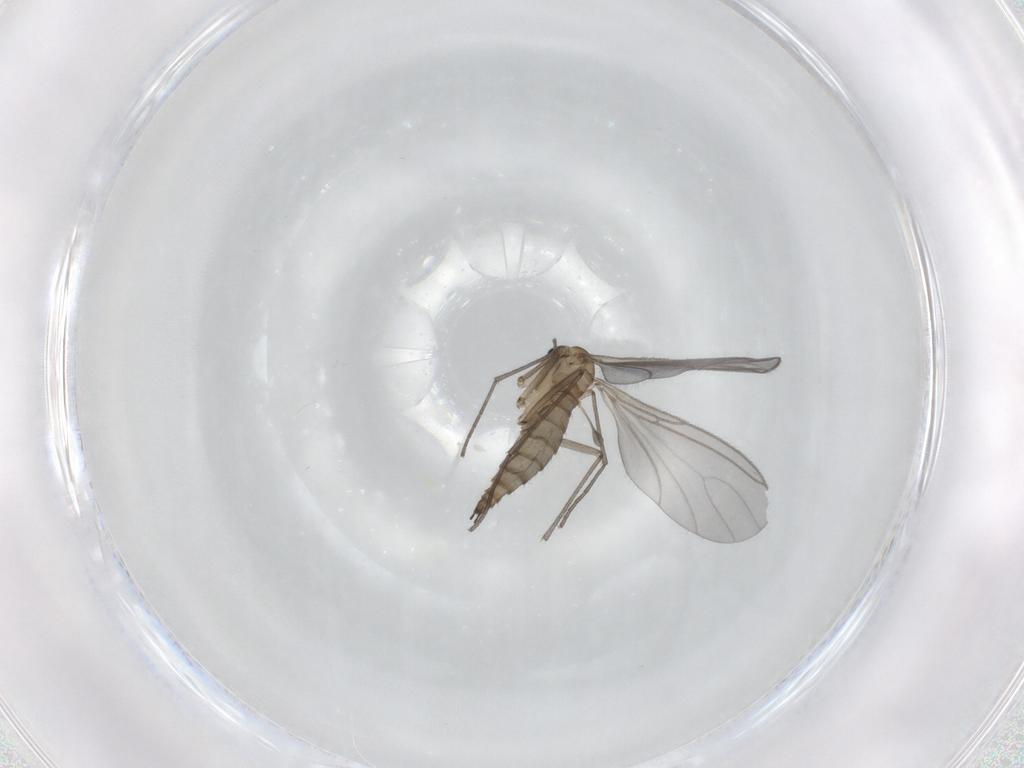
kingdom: Animalia
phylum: Arthropoda
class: Insecta
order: Diptera
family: Sciaridae
